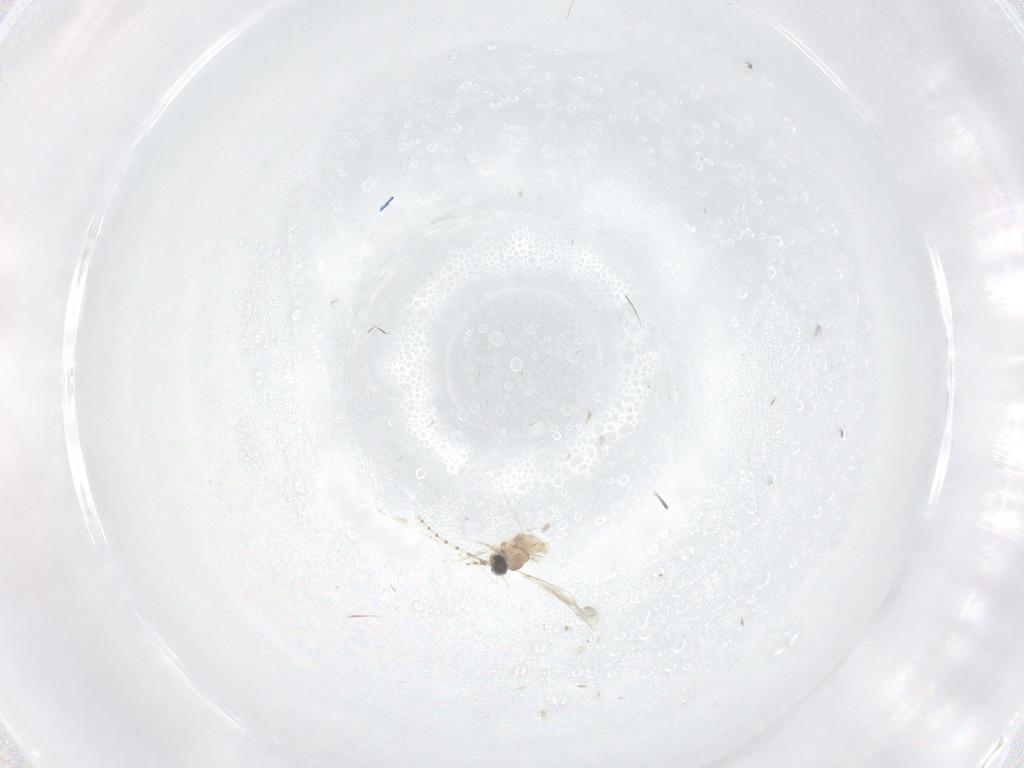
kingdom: Animalia
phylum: Arthropoda
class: Insecta
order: Diptera
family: Cecidomyiidae
